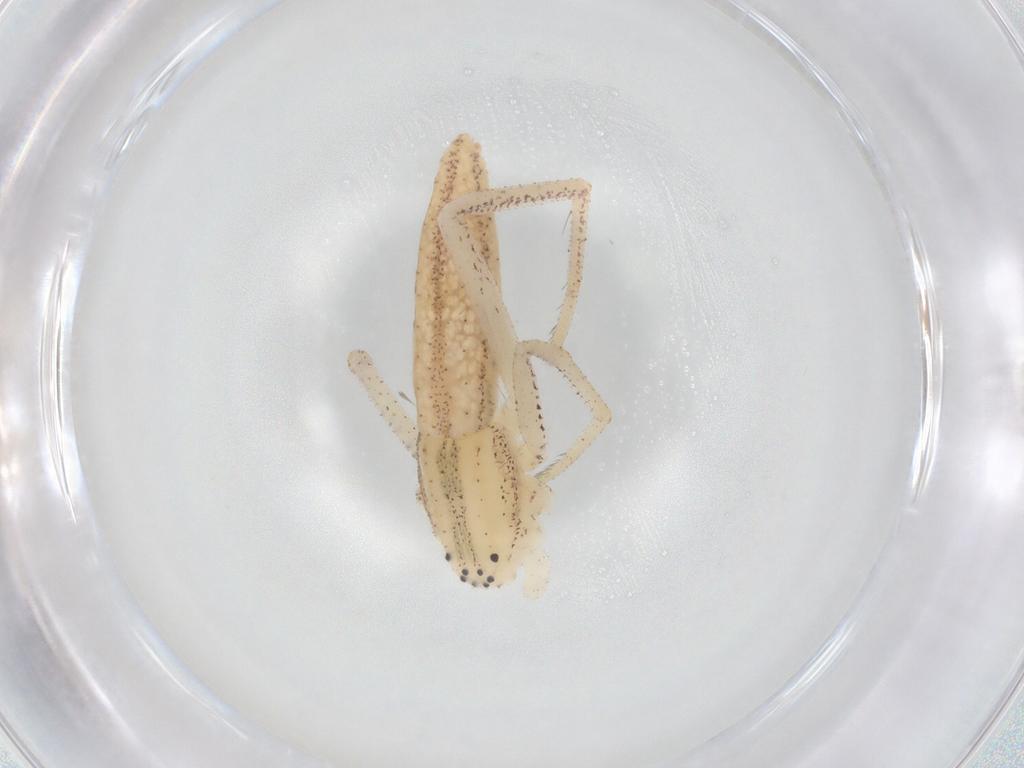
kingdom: Animalia
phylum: Arthropoda
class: Arachnida
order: Araneae
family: Philodromidae
